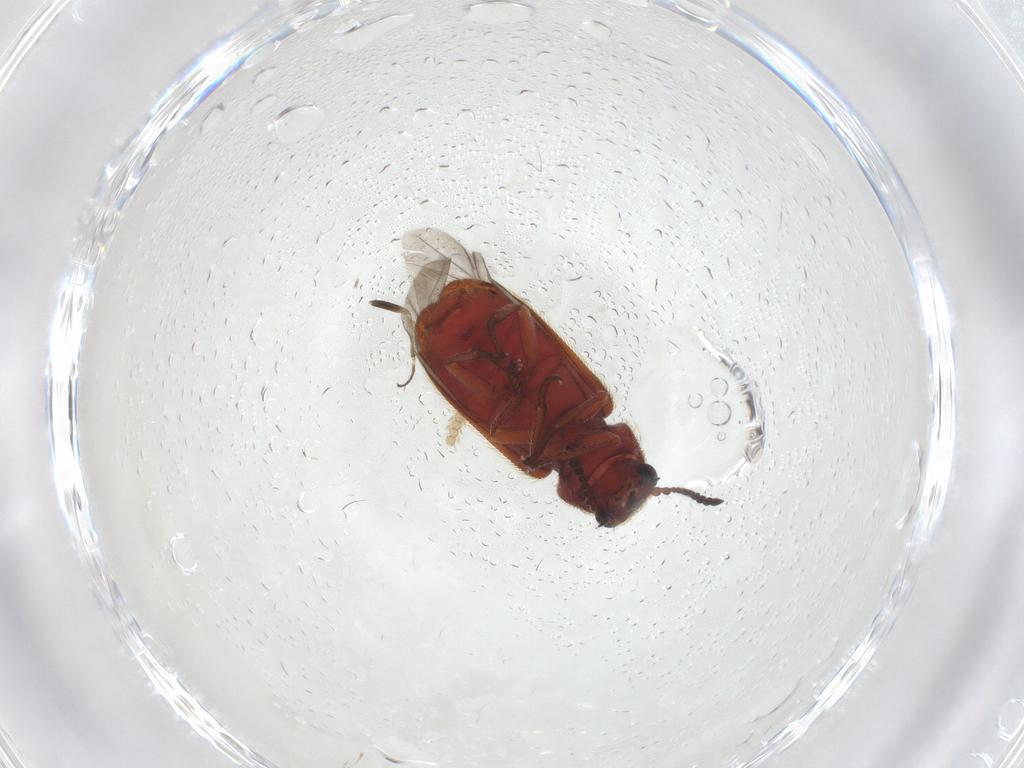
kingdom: Animalia
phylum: Arthropoda
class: Insecta
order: Coleoptera
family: Melyridae
